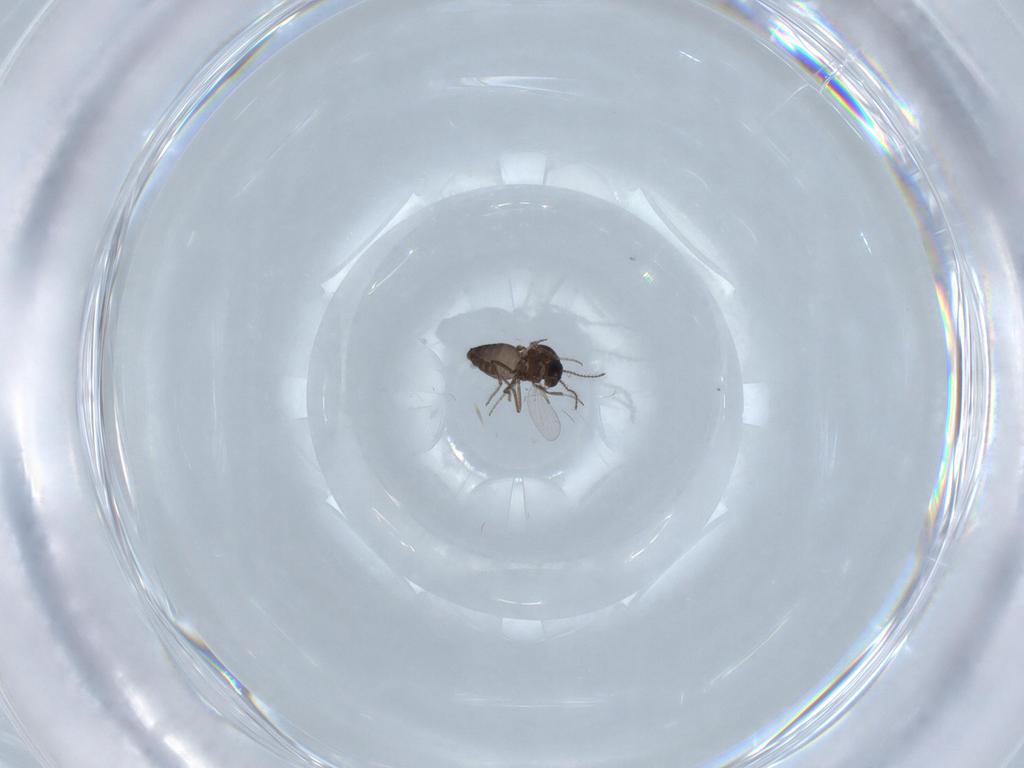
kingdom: Animalia
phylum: Arthropoda
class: Insecta
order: Diptera
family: Ceratopogonidae
